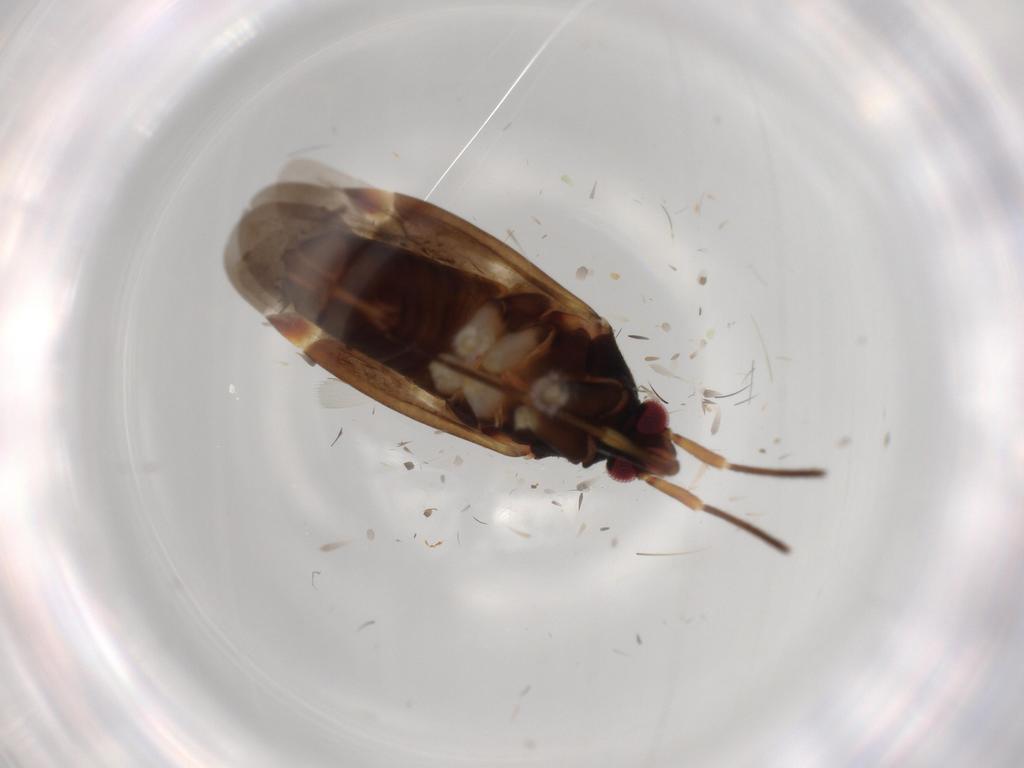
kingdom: Animalia
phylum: Arthropoda
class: Insecta
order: Hemiptera
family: Miridae
